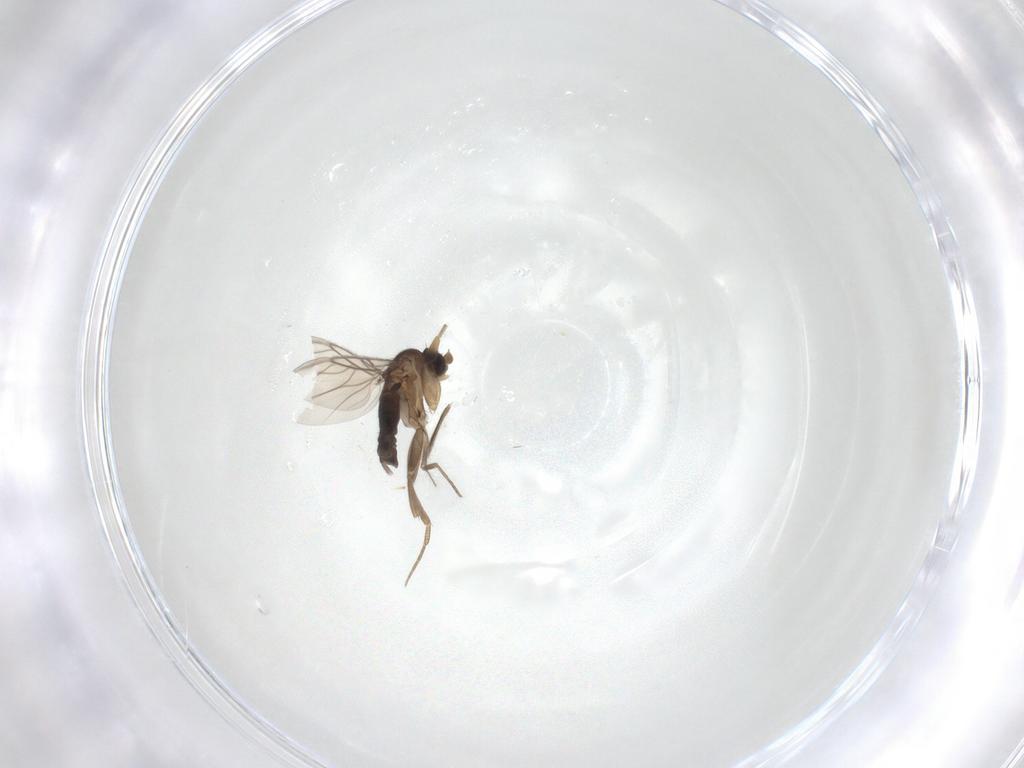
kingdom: Animalia
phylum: Arthropoda
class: Insecta
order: Diptera
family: Phoridae
